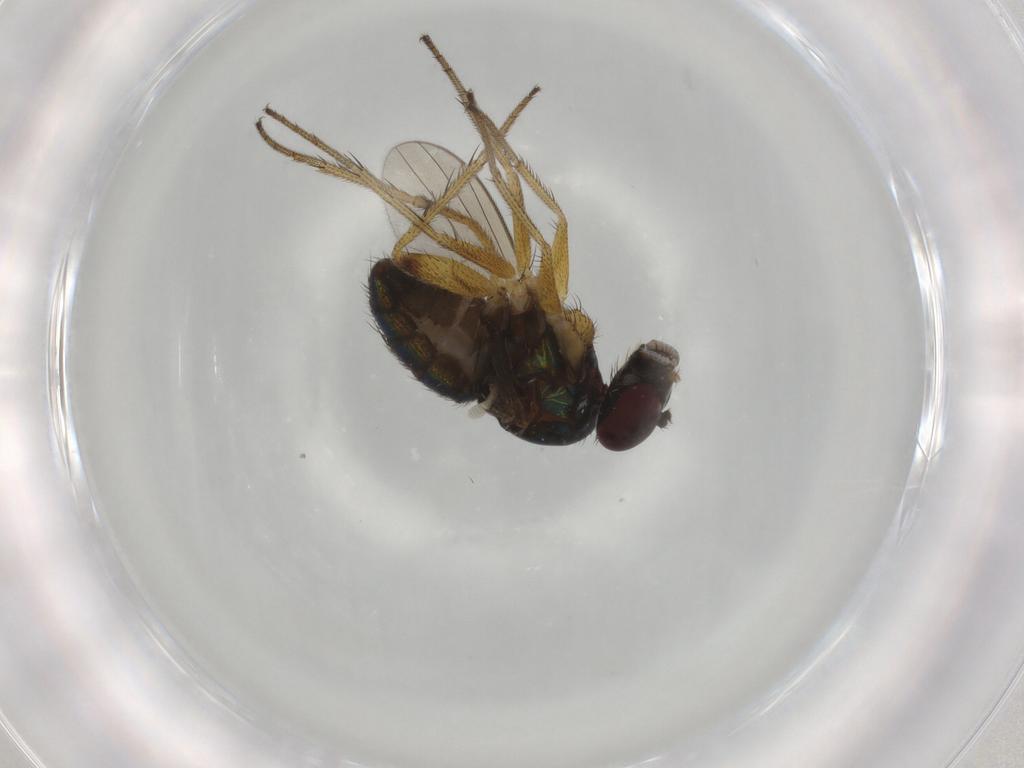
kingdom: Animalia
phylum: Arthropoda
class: Insecta
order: Diptera
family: Dolichopodidae
